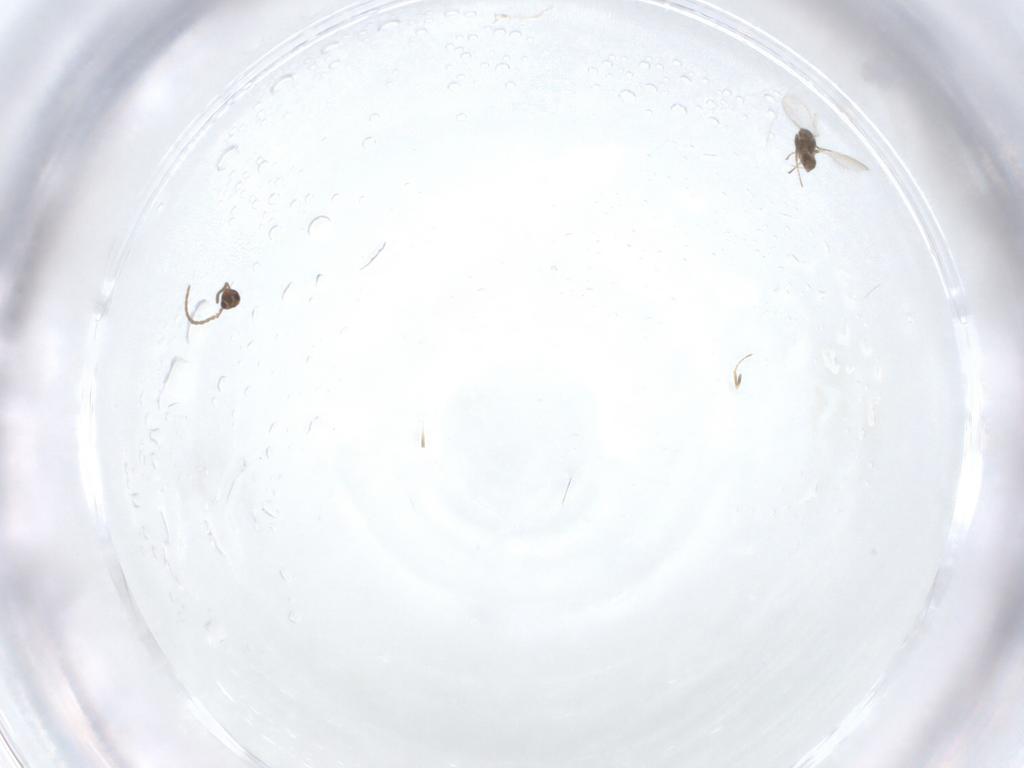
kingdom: Animalia
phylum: Arthropoda
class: Insecta
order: Hymenoptera
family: Mymaridae
